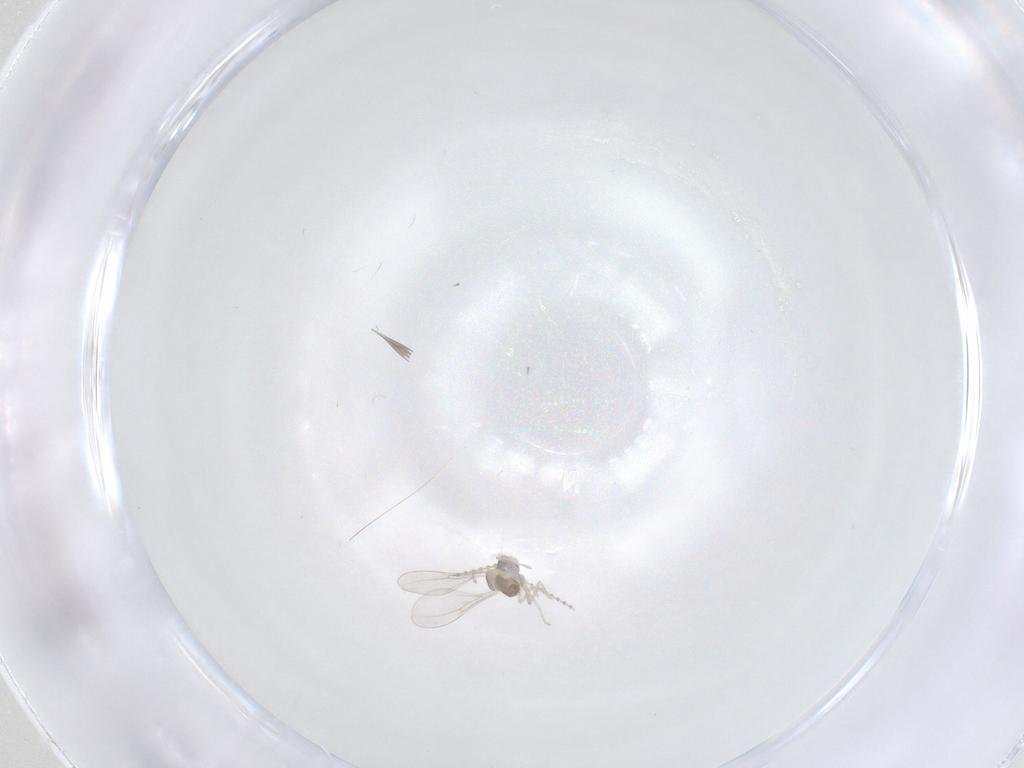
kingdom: Animalia
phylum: Arthropoda
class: Insecta
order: Diptera
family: Cecidomyiidae
